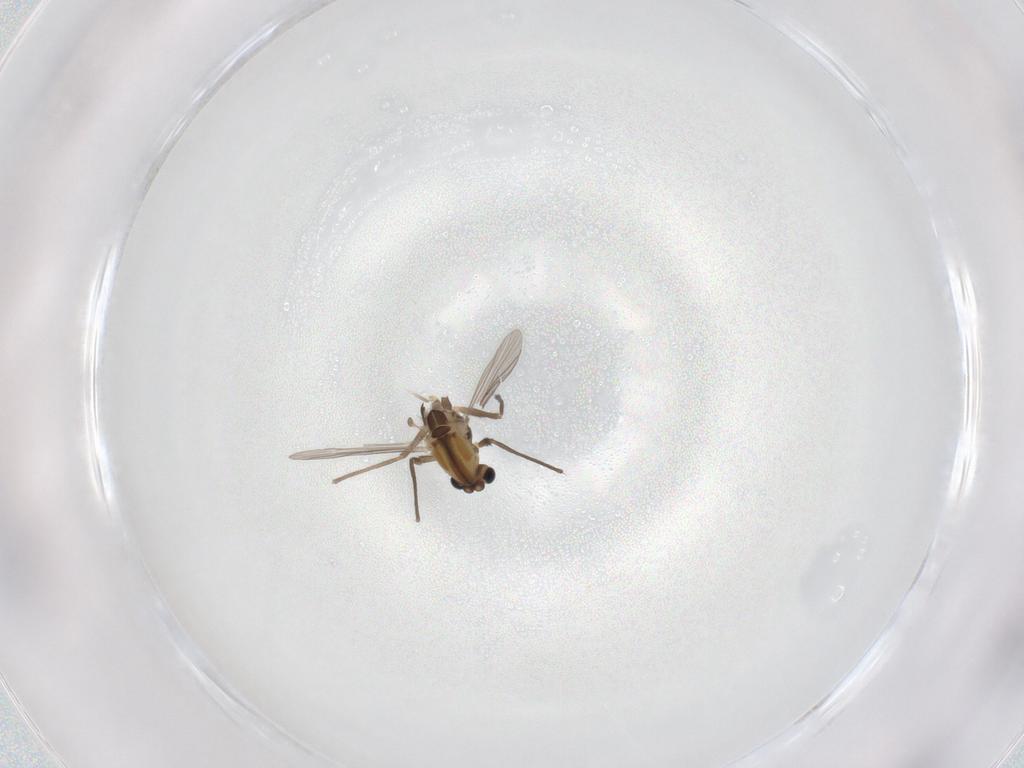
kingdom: Animalia
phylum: Arthropoda
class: Insecta
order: Diptera
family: Chironomidae
